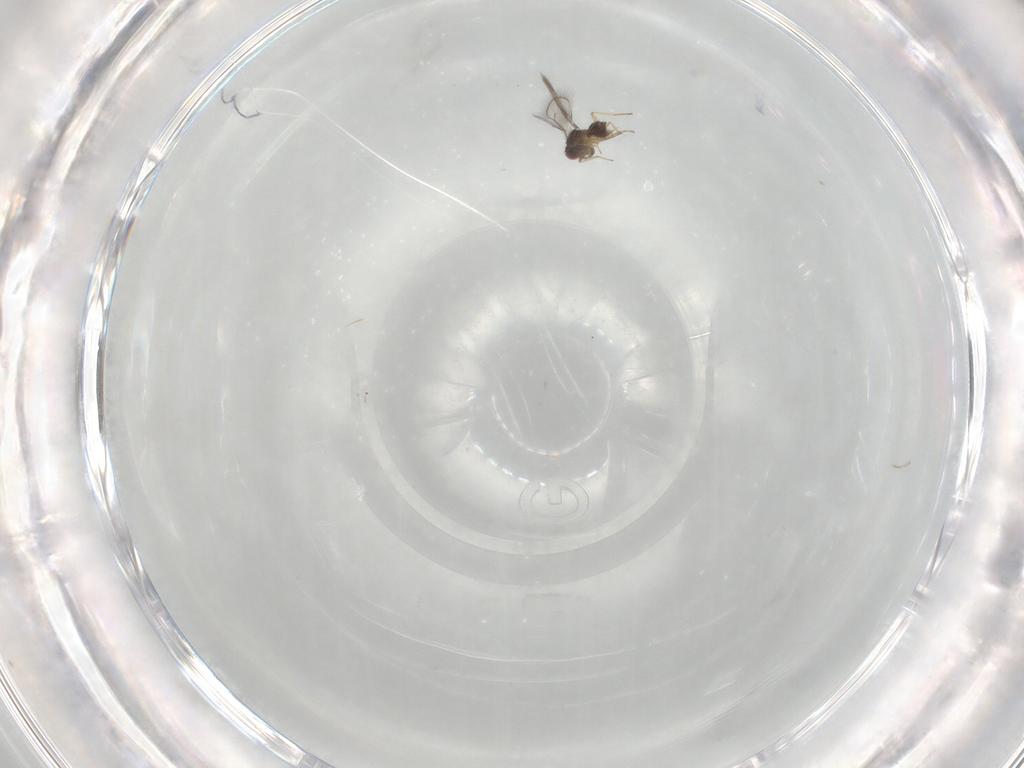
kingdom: Animalia
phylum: Arthropoda
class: Insecta
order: Hymenoptera
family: Eulophidae
